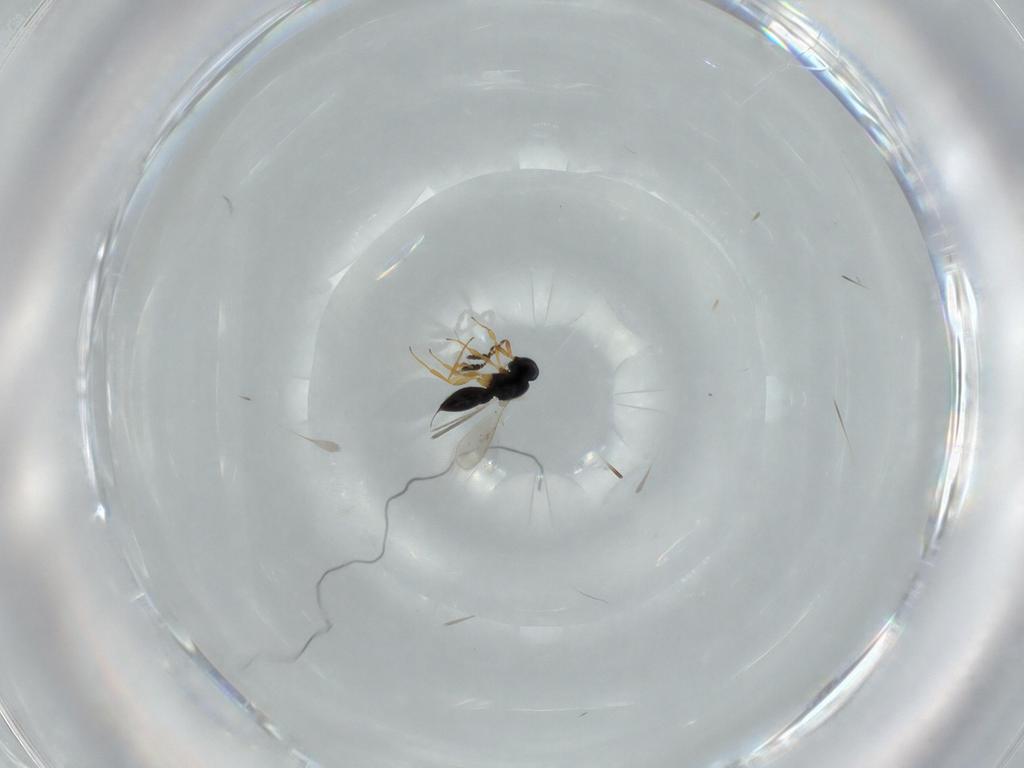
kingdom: Animalia
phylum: Arthropoda
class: Insecta
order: Hymenoptera
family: Scelionidae
